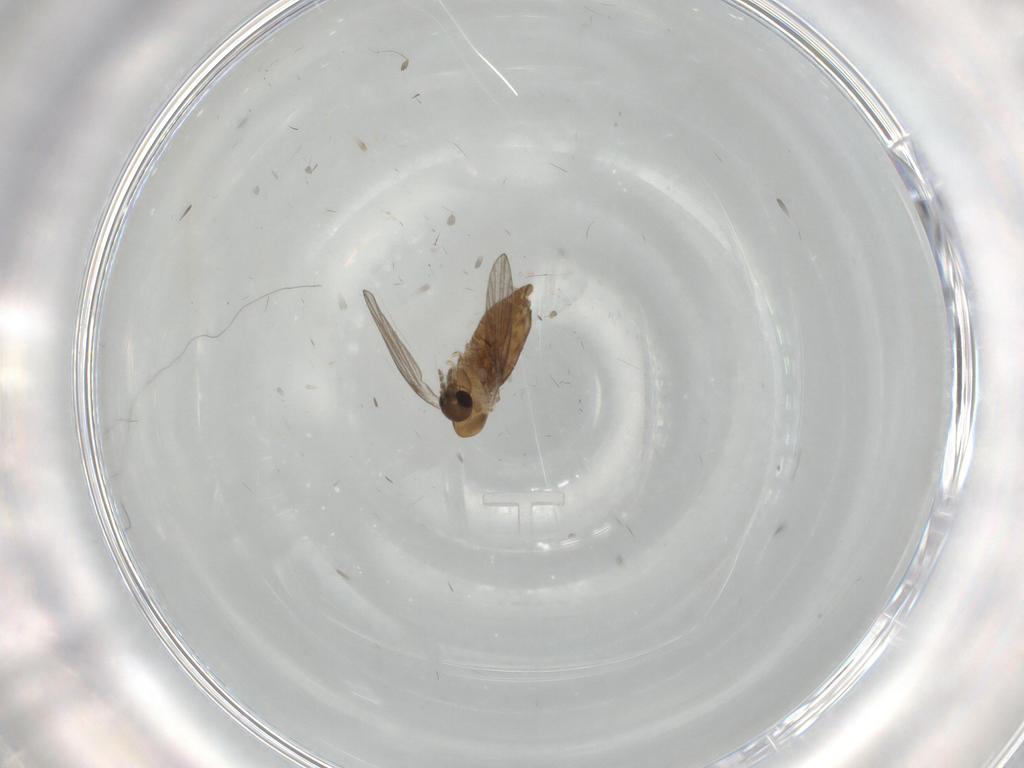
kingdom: Animalia
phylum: Arthropoda
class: Insecta
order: Diptera
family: Psychodidae
